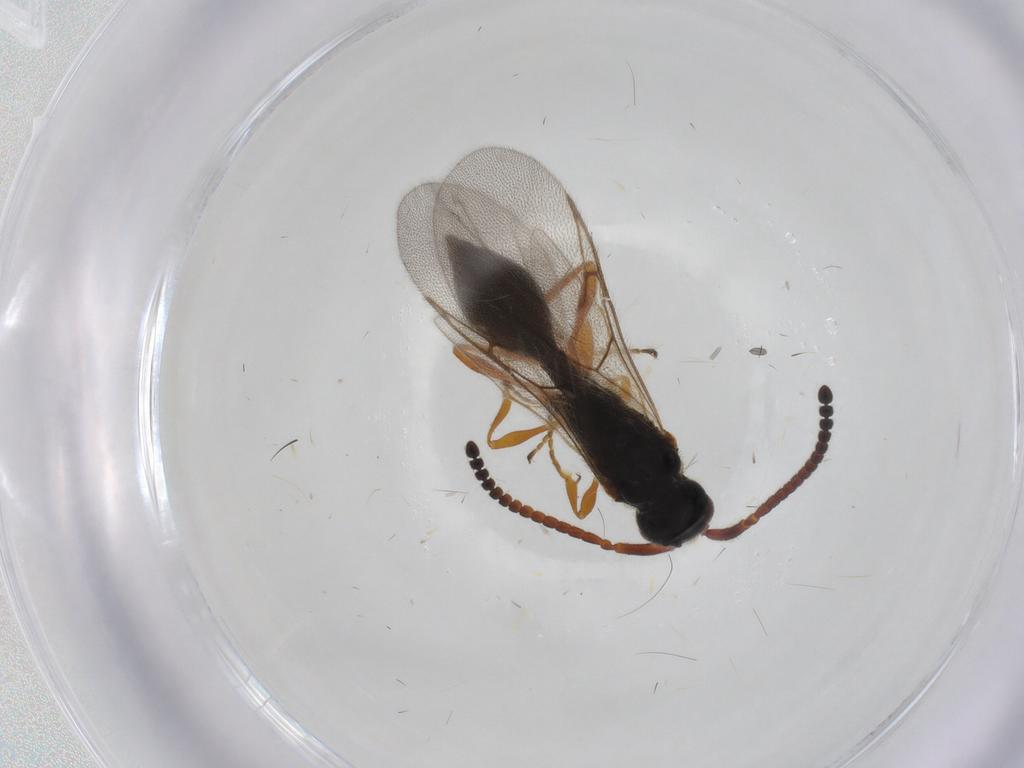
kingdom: Animalia
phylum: Arthropoda
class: Insecta
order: Hymenoptera
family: Diapriidae
